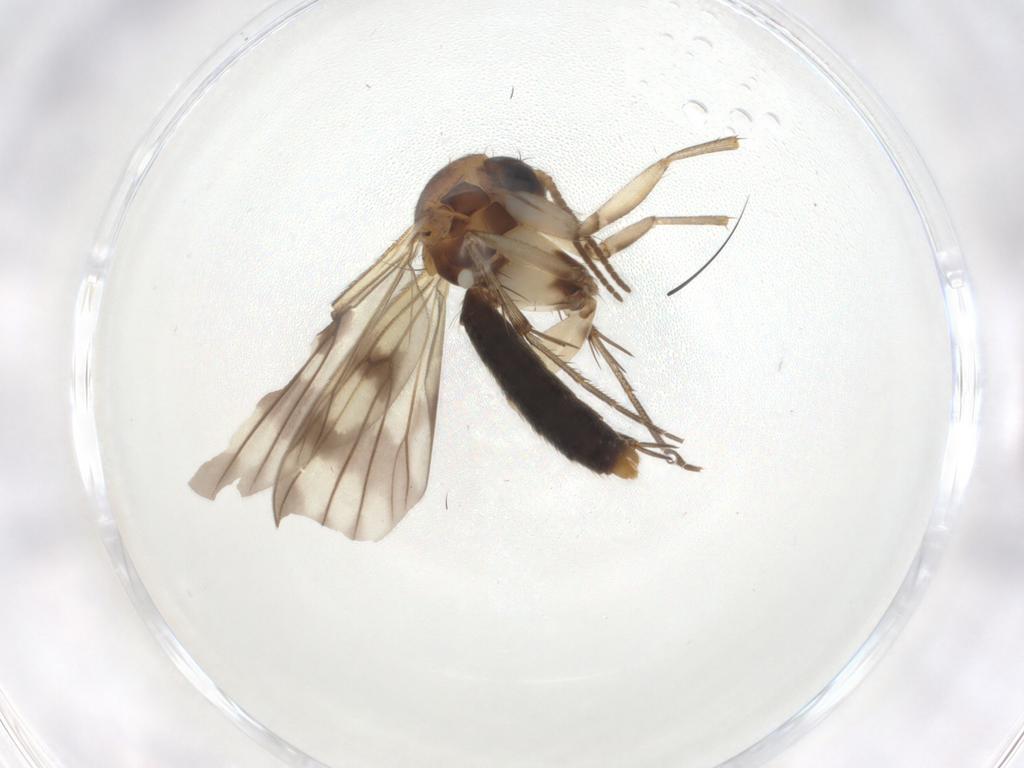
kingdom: Animalia
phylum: Arthropoda
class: Insecta
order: Diptera
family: Mycetophilidae
